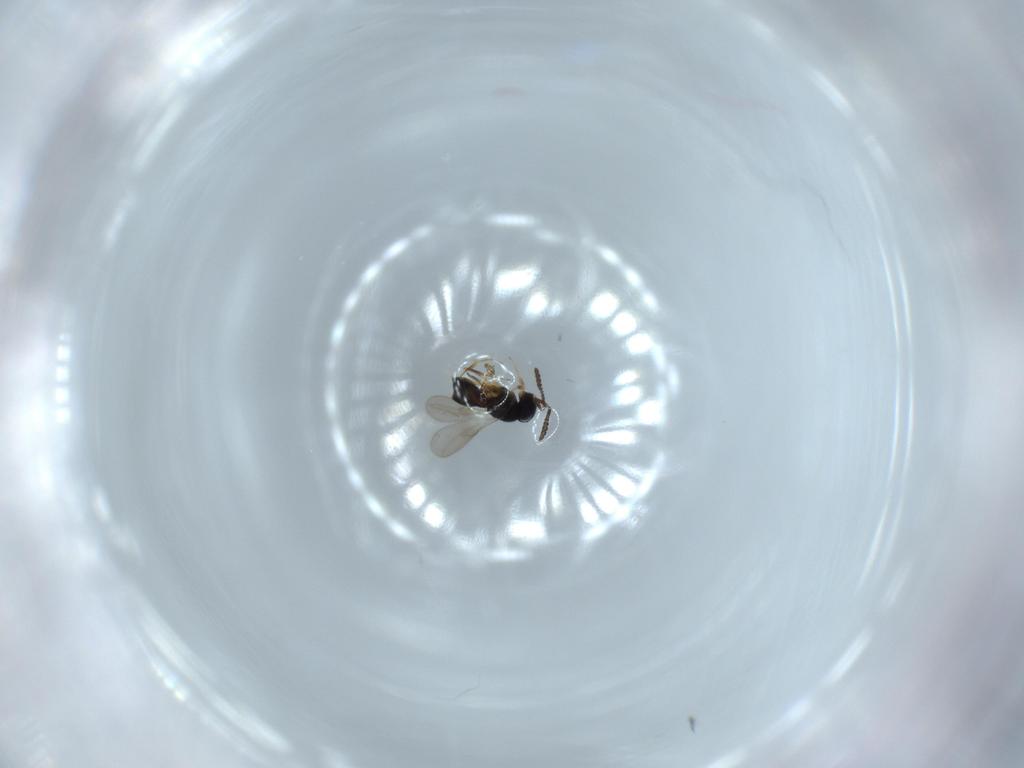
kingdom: Animalia
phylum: Arthropoda
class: Insecta
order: Hymenoptera
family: Scelionidae
